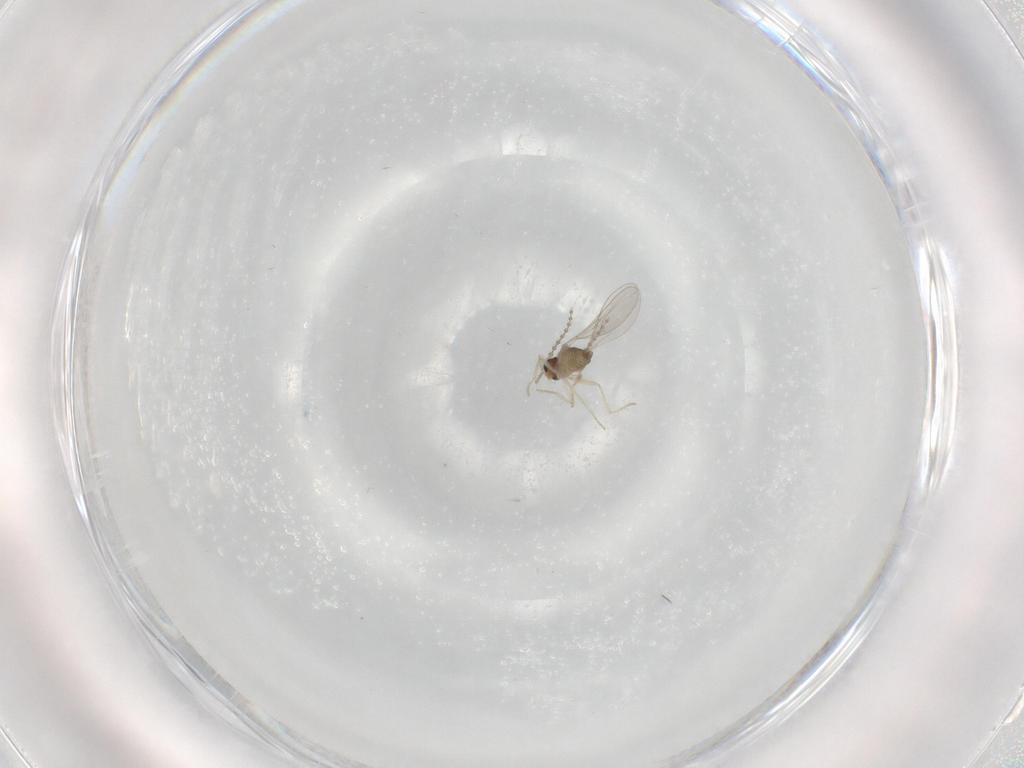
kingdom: Animalia
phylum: Arthropoda
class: Insecta
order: Diptera
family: Cecidomyiidae
